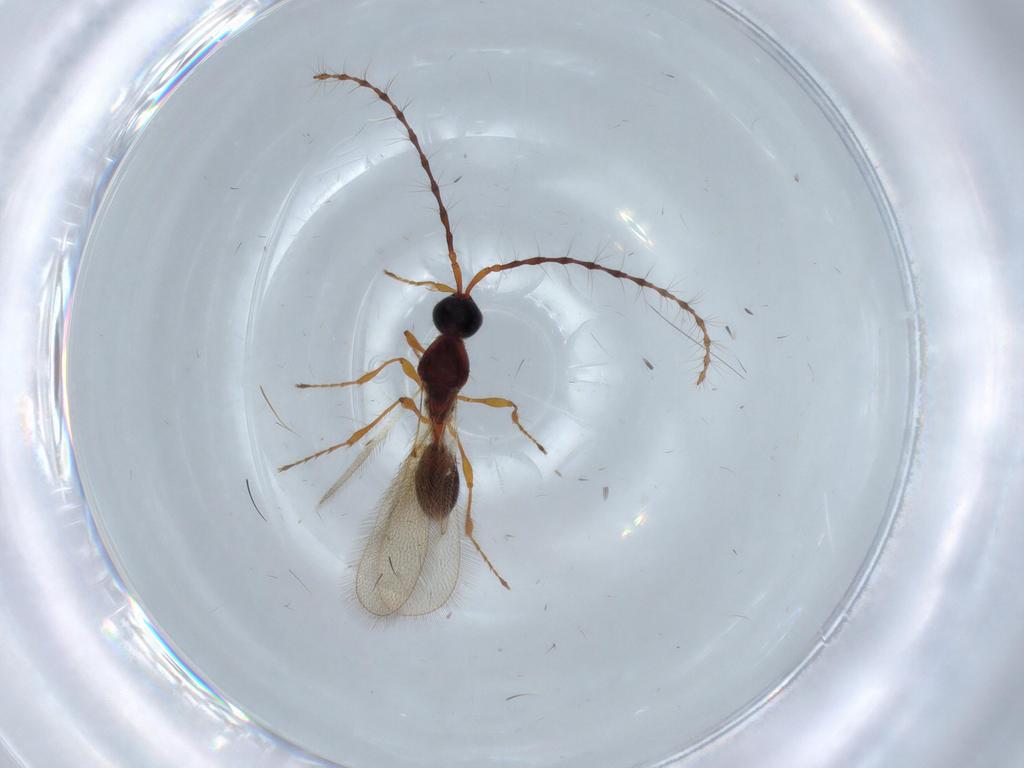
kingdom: Animalia
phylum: Arthropoda
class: Insecta
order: Hymenoptera
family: Diapriidae
